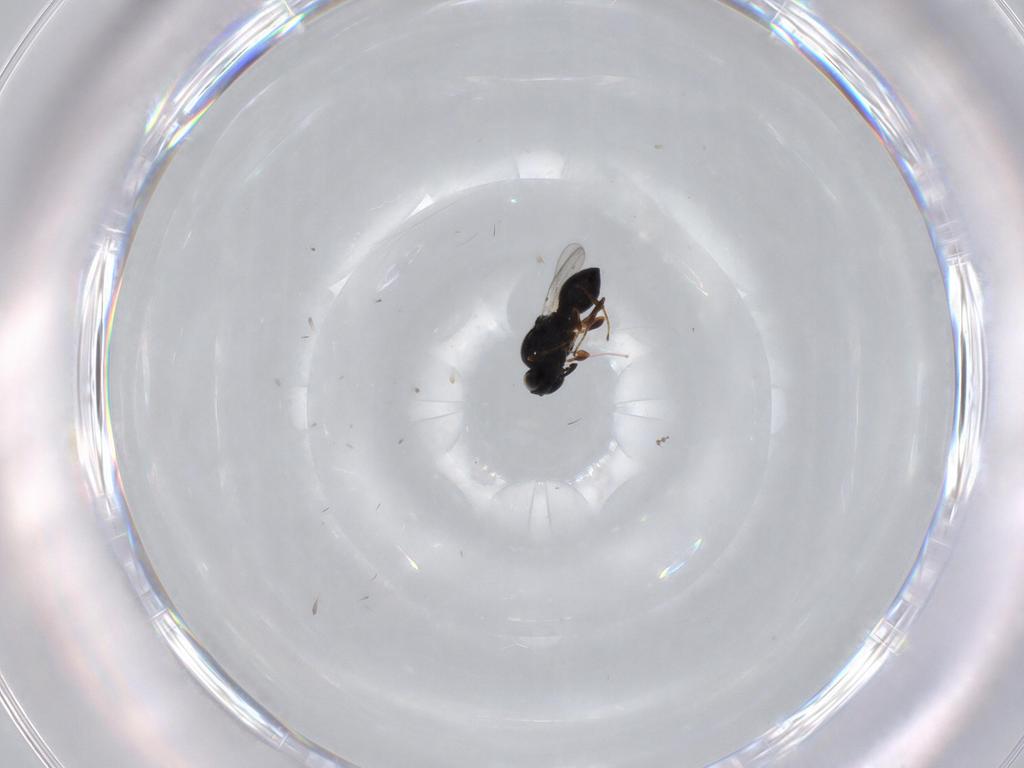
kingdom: Animalia
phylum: Arthropoda
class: Insecta
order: Hymenoptera
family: Platygastridae
